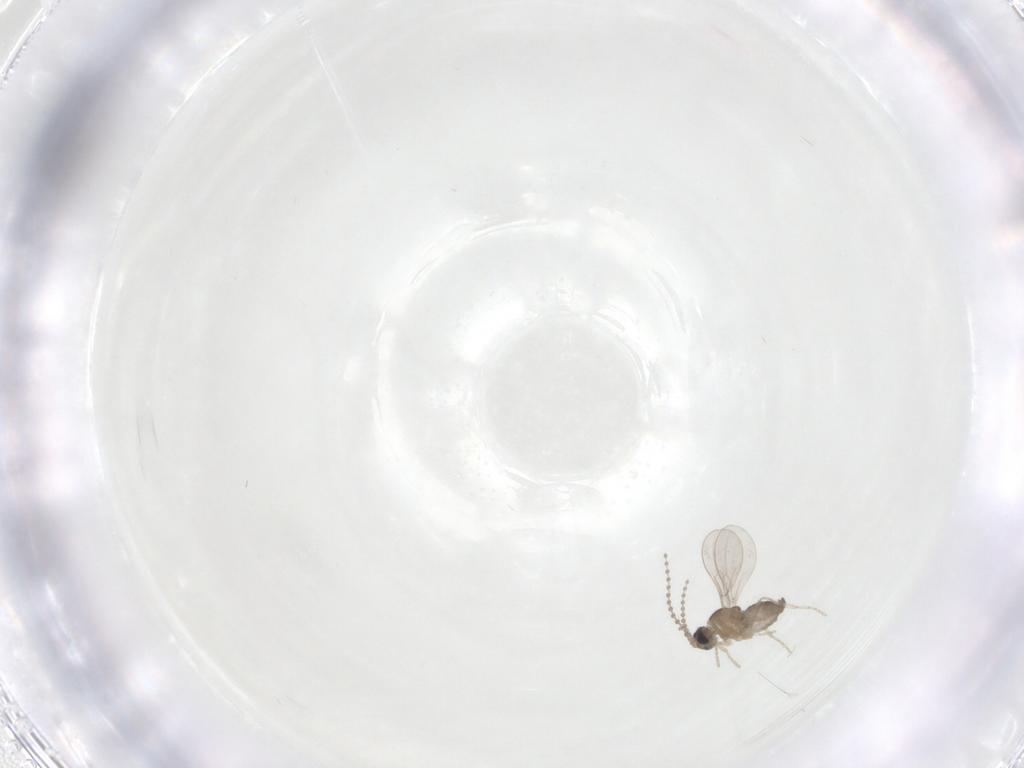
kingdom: Animalia
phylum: Arthropoda
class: Insecta
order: Diptera
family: Cecidomyiidae
